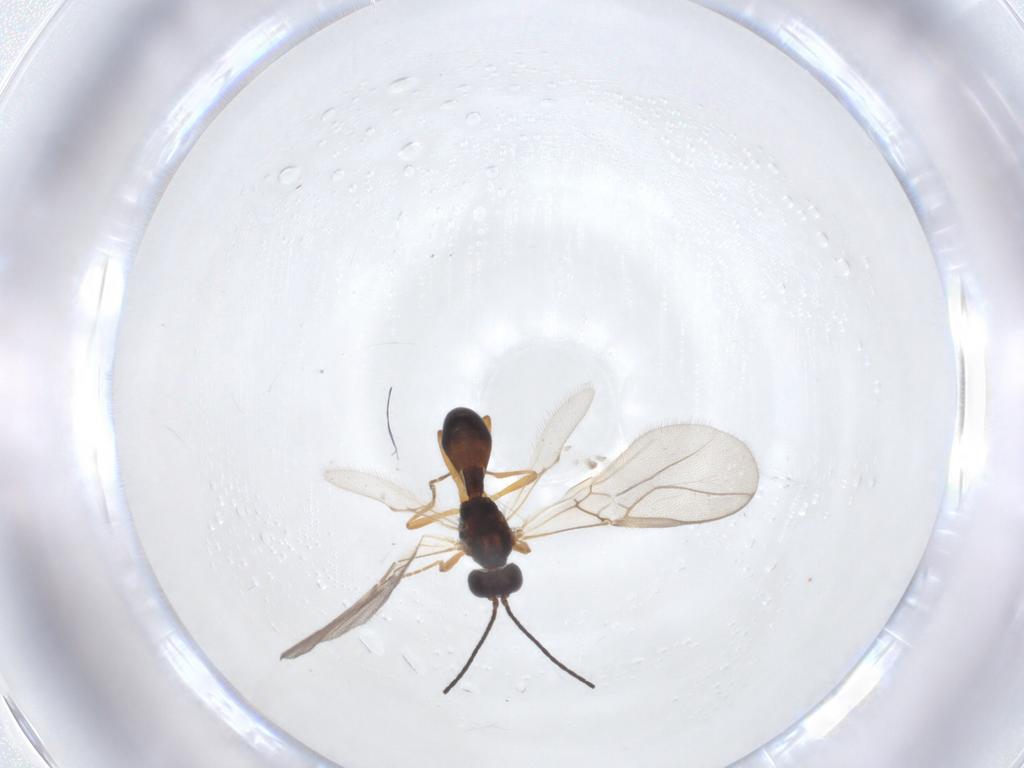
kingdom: Animalia
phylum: Arthropoda
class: Insecta
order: Hymenoptera
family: Braconidae
